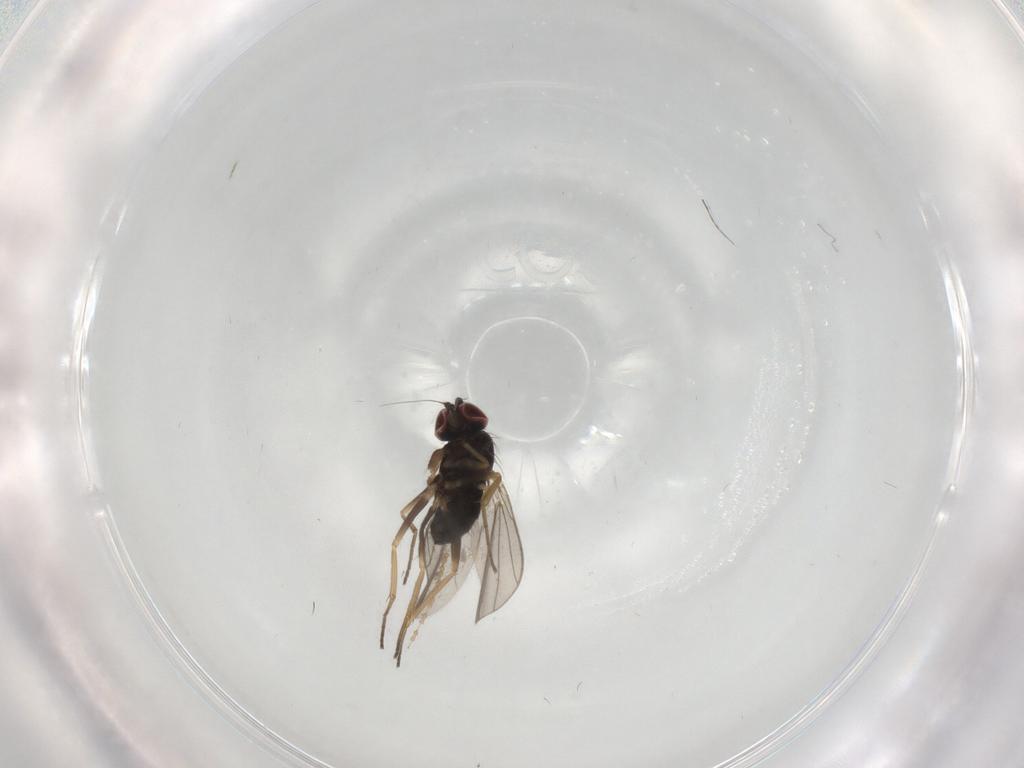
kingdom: Animalia
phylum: Arthropoda
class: Insecta
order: Diptera
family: Dolichopodidae
